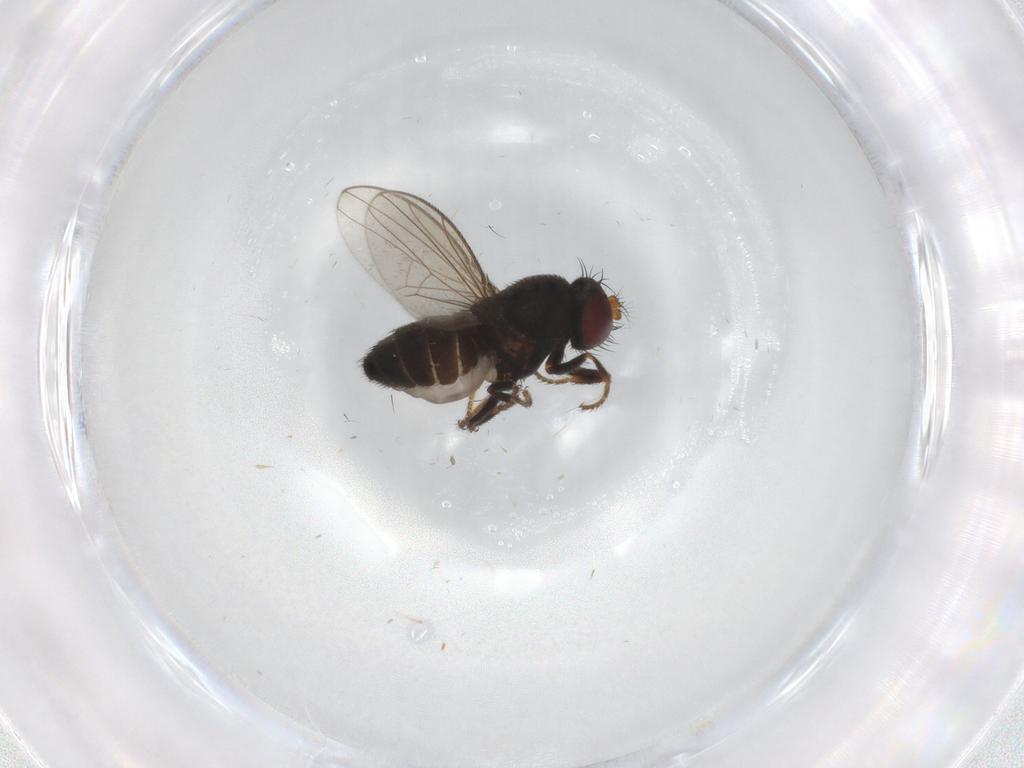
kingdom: Animalia
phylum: Arthropoda
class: Insecta
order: Diptera
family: Ephydridae
